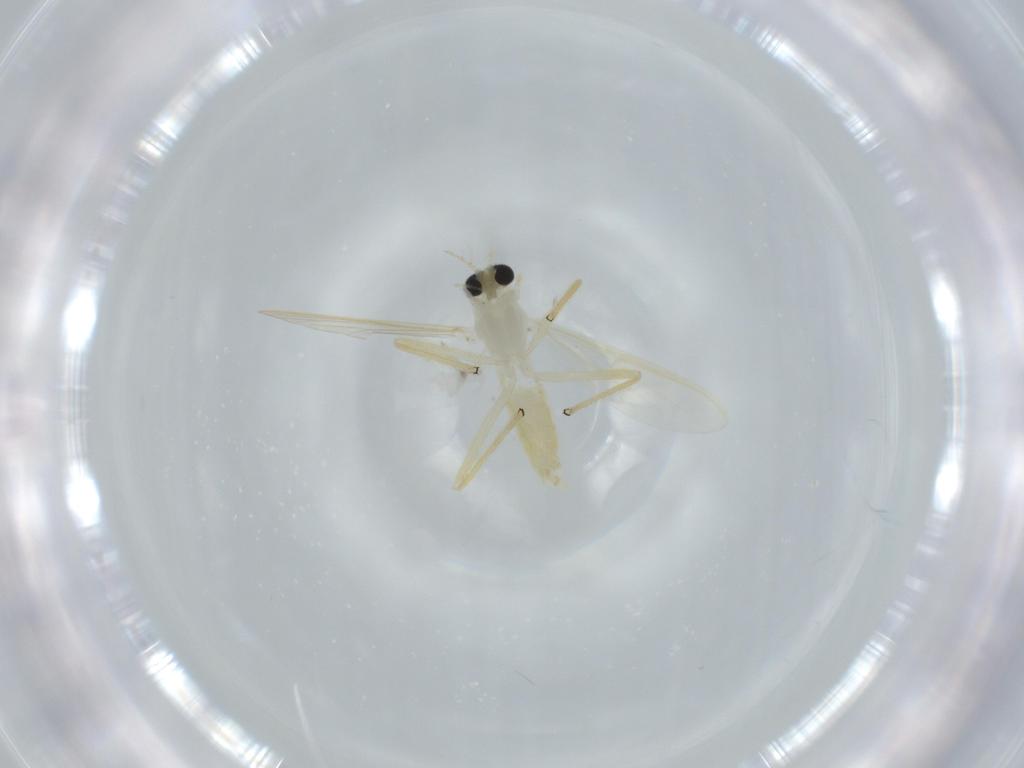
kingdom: Animalia
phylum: Arthropoda
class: Insecta
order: Diptera
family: Chironomidae
